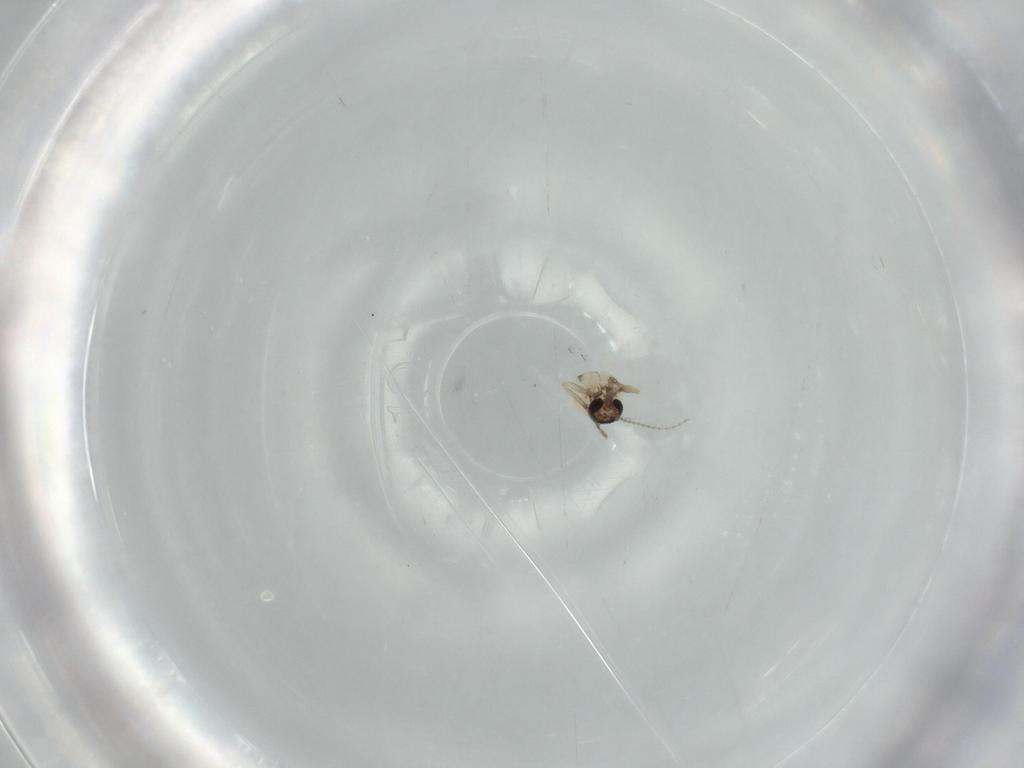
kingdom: Animalia
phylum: Arthropoda
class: Insecta
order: Diptera
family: Ceratopogonidae
